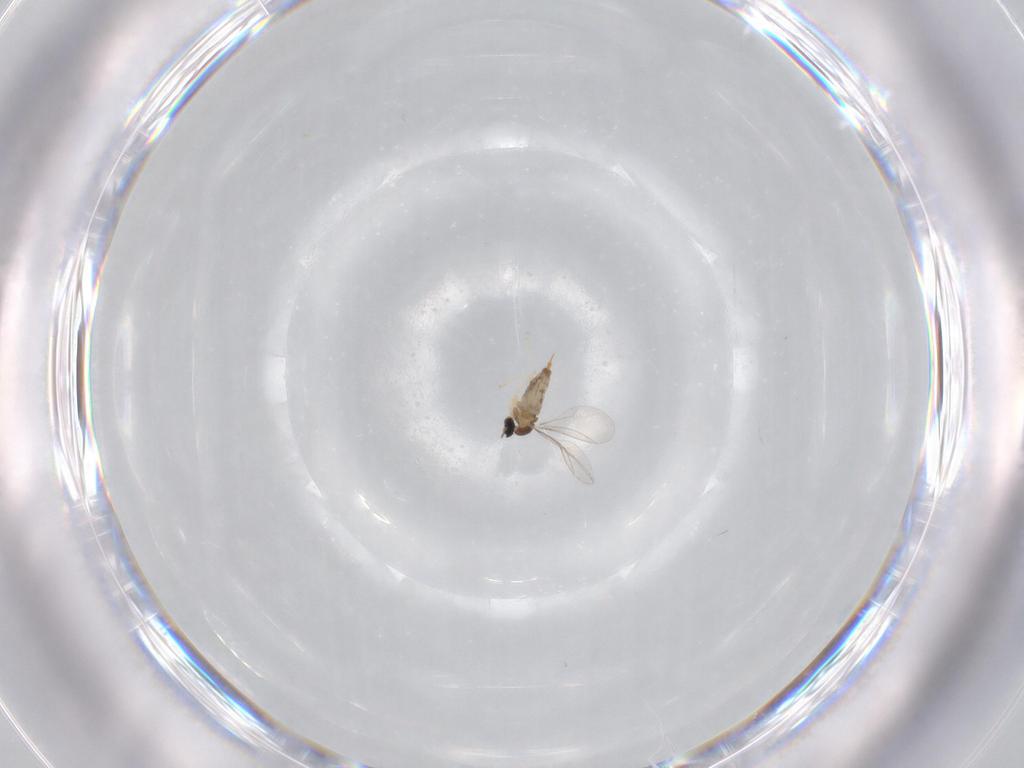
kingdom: Animalia
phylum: Arthropoda
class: Insecta
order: Diptera
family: Cecidomyiidae
